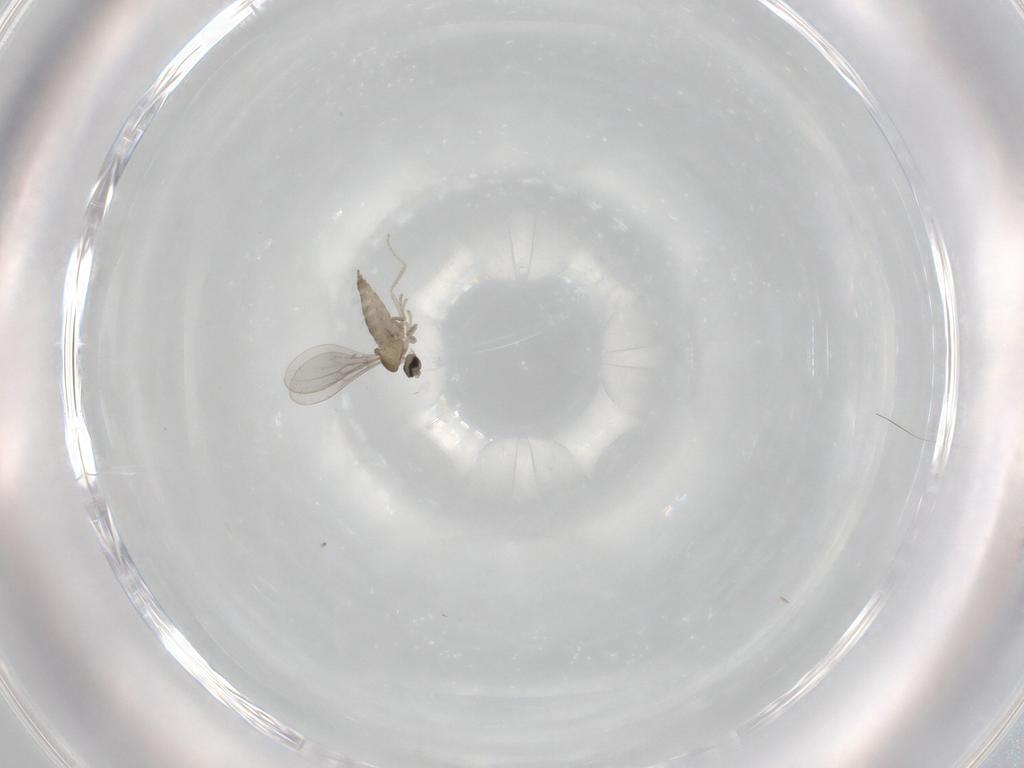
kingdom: Animalia
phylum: Arthropoda
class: Insecta
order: Diptera
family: Cecidomyiidae
